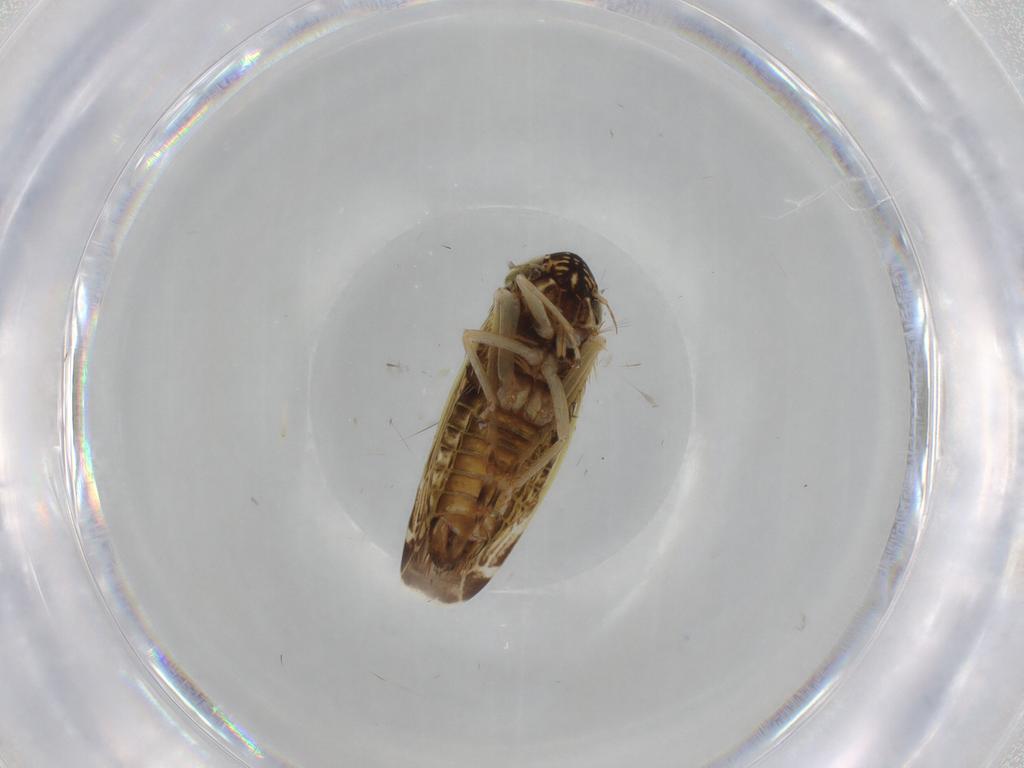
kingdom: Animalia
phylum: Arthropoda
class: Insecta
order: Hemiptera
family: Cicadellidae
